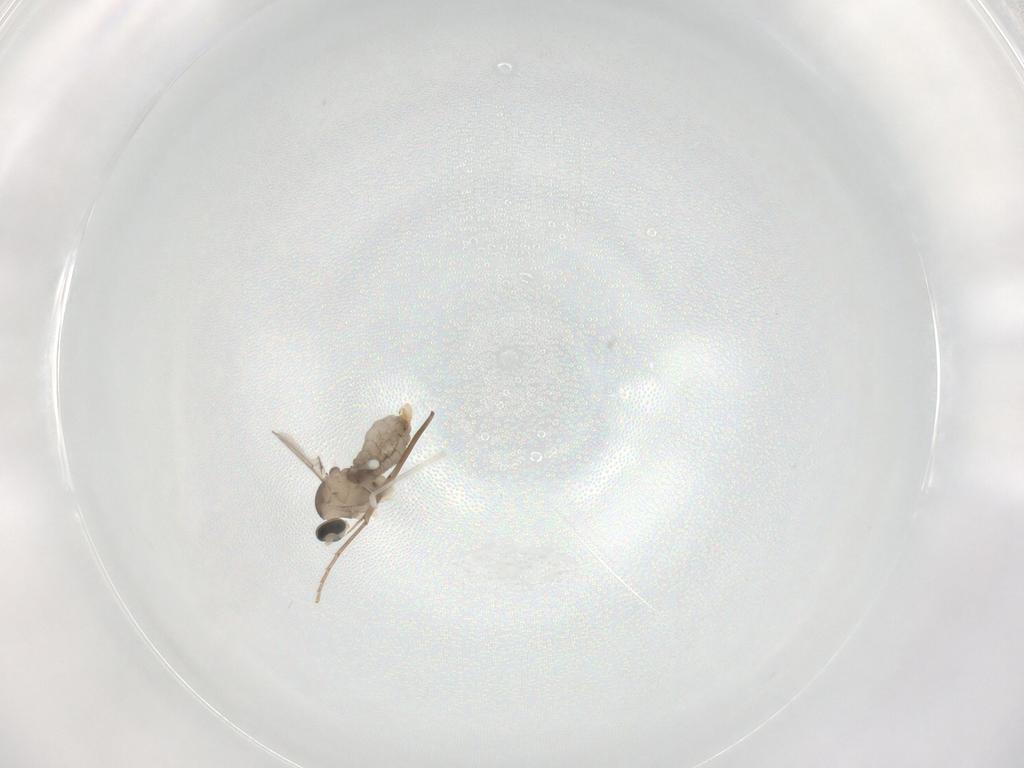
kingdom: Animalia
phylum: Arthropoda
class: Insecta
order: Diptera
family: Cecidomyiidae
